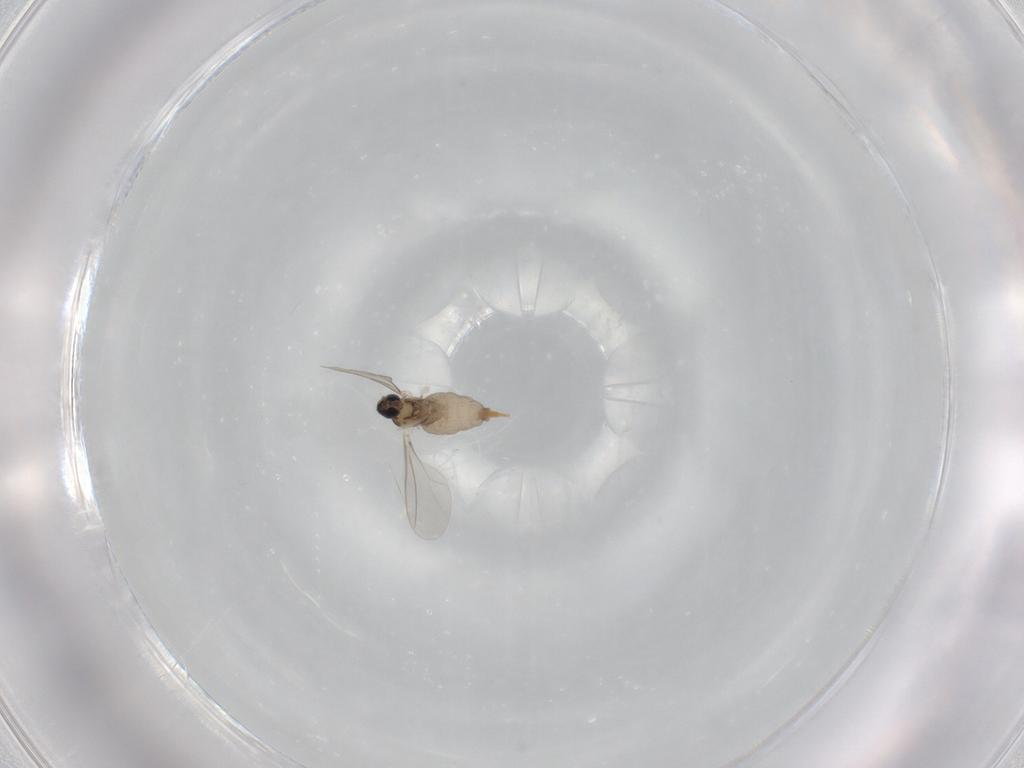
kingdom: Animalia
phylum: Arthropoda
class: Insecta
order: Diptera
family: Cecidomyiidae
